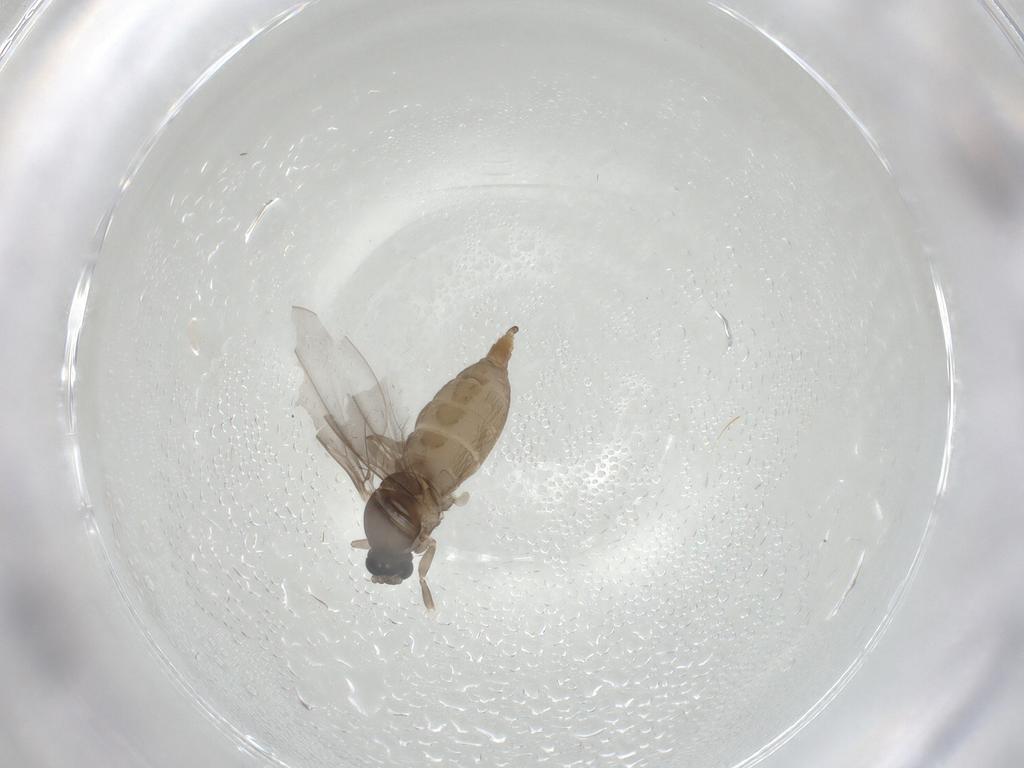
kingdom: Animalia
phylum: Arthropoda
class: Insecta
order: Diptera
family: Chironomidae
